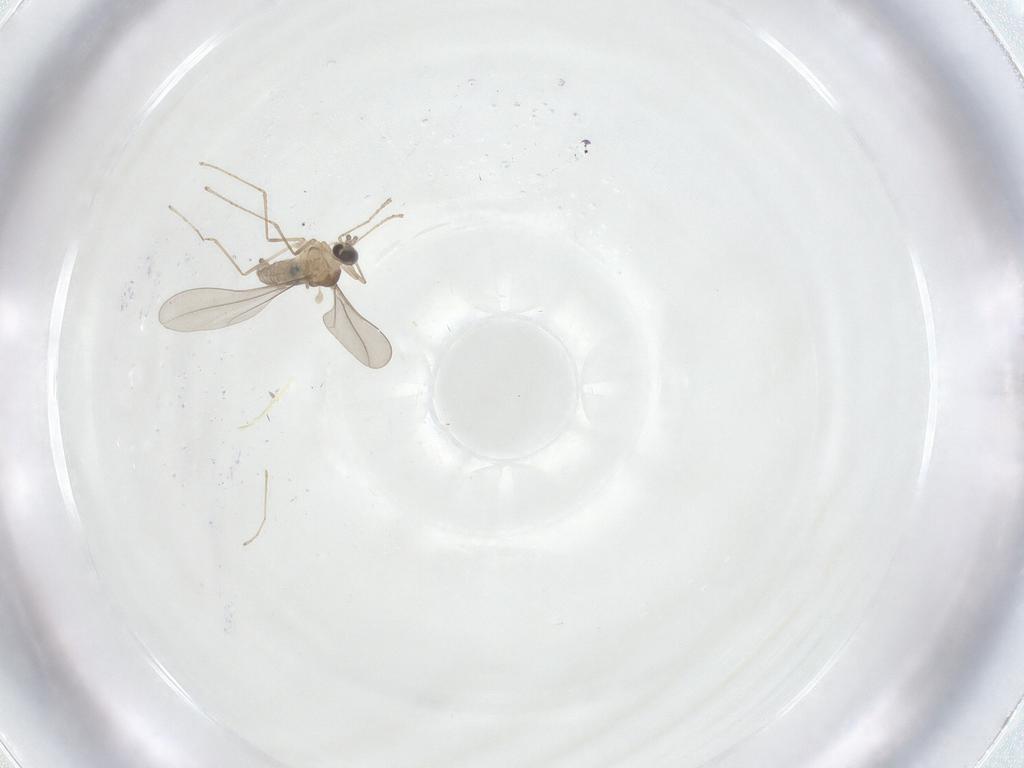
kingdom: Animalia
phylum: Arthropoda
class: Insecta
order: Diptera
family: Cecidomyiidae
